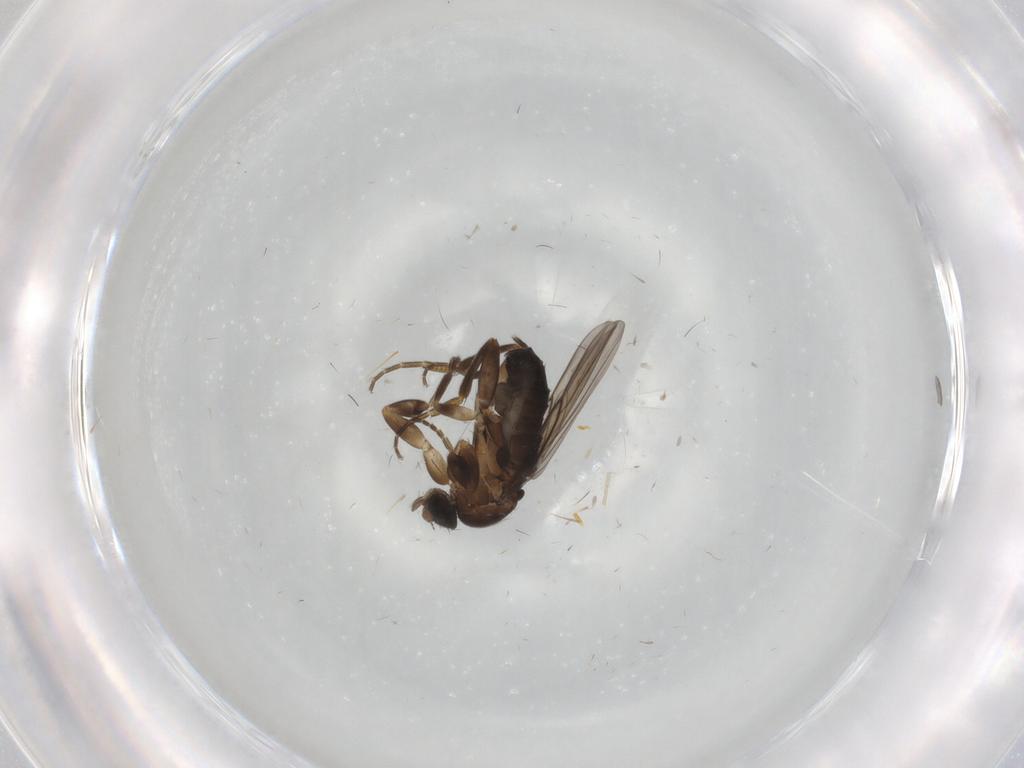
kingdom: Animalia
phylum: Arthropoda
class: Insecta
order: Diptera
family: Chironomidae
